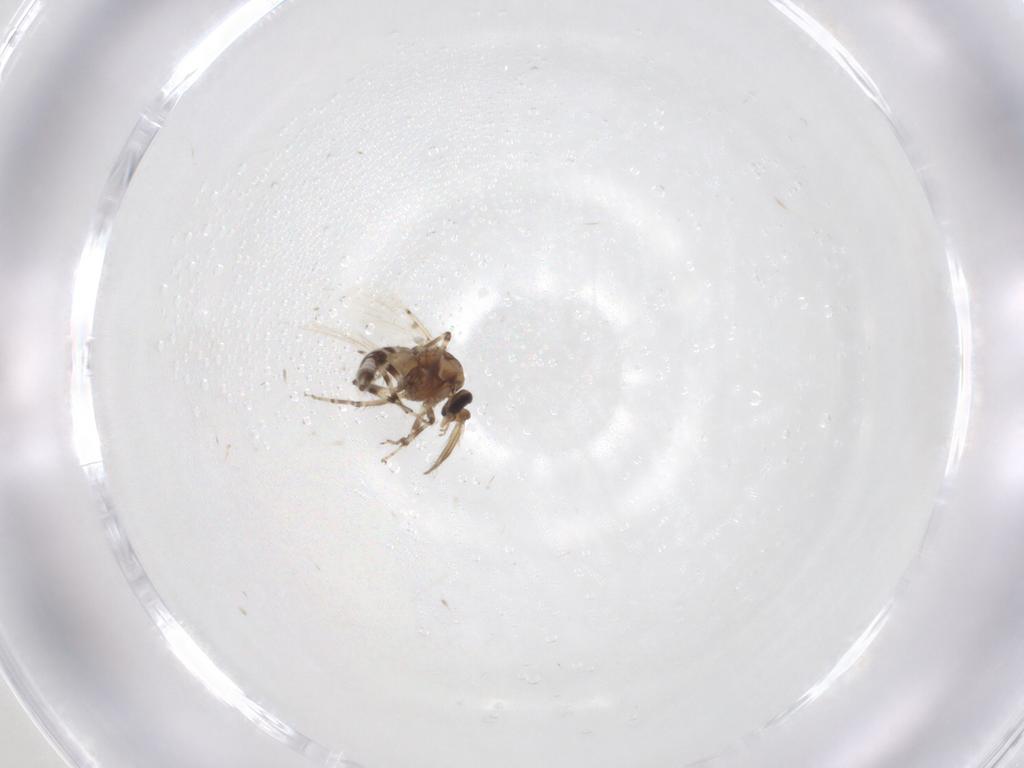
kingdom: Animalia
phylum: Arthropoda
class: Insecta
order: Diptera
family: Ceratopogonidae
